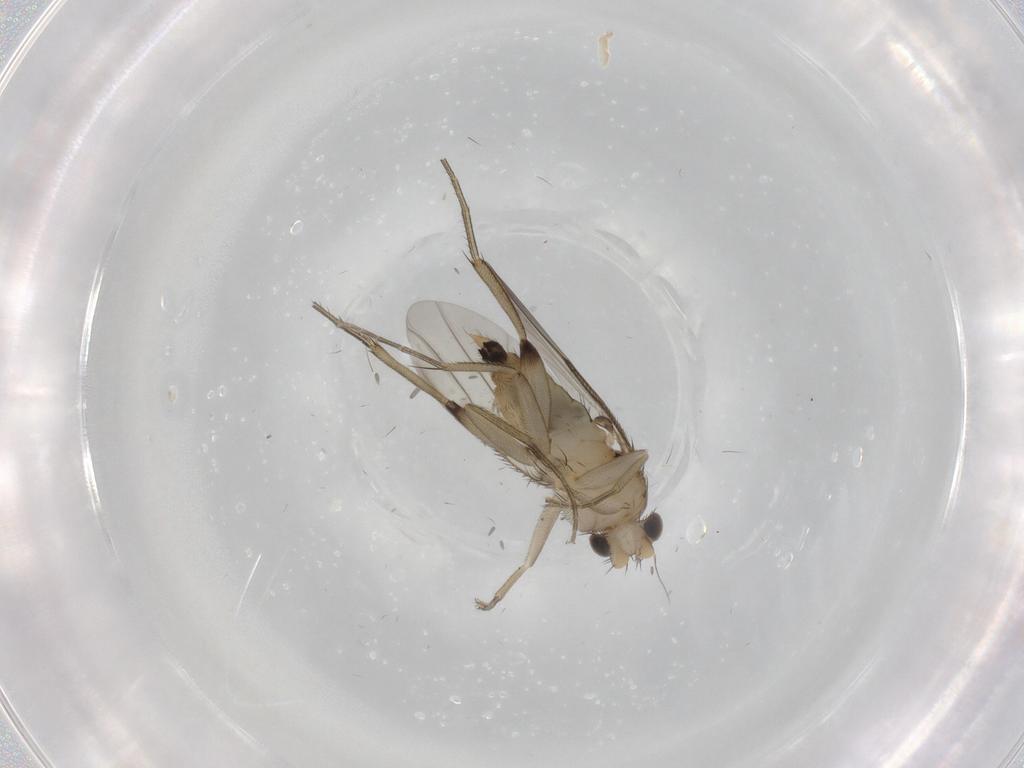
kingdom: Animalia
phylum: Arthropoda
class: Insecta
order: Diptera
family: Phoridae
